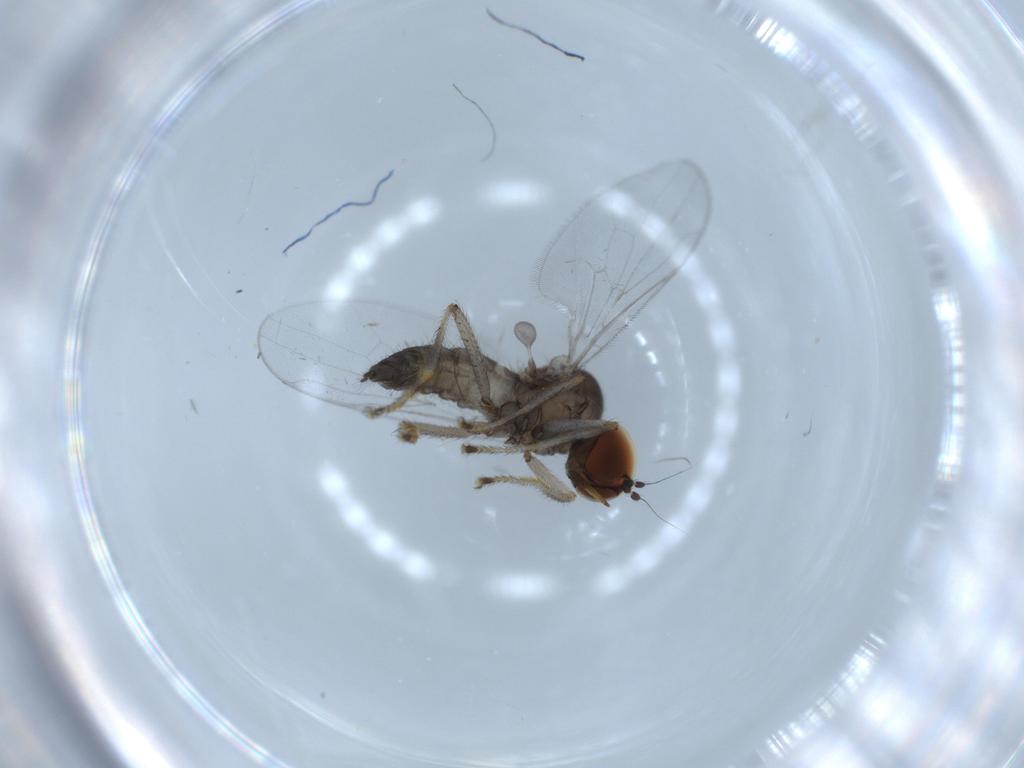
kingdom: Animalia
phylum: Arthropoda
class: Insecta
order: Diptera
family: Hybotidae
